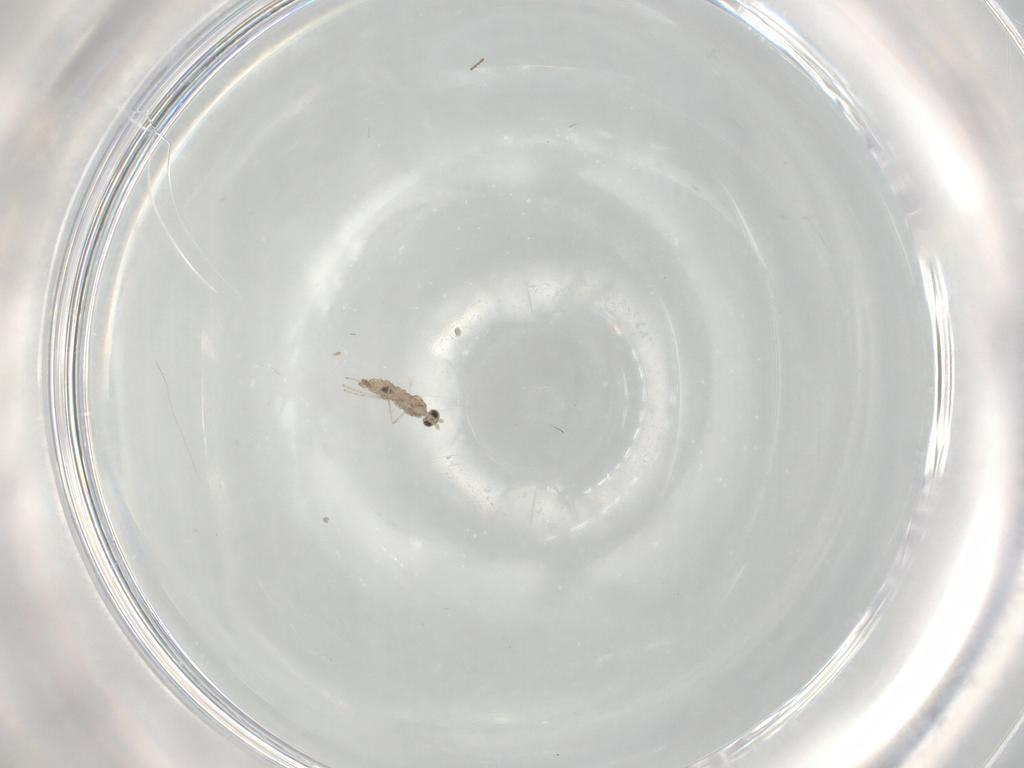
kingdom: Animalia
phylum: Arthropoda
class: Insecta
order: Diptera
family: Cecidomyiidae
